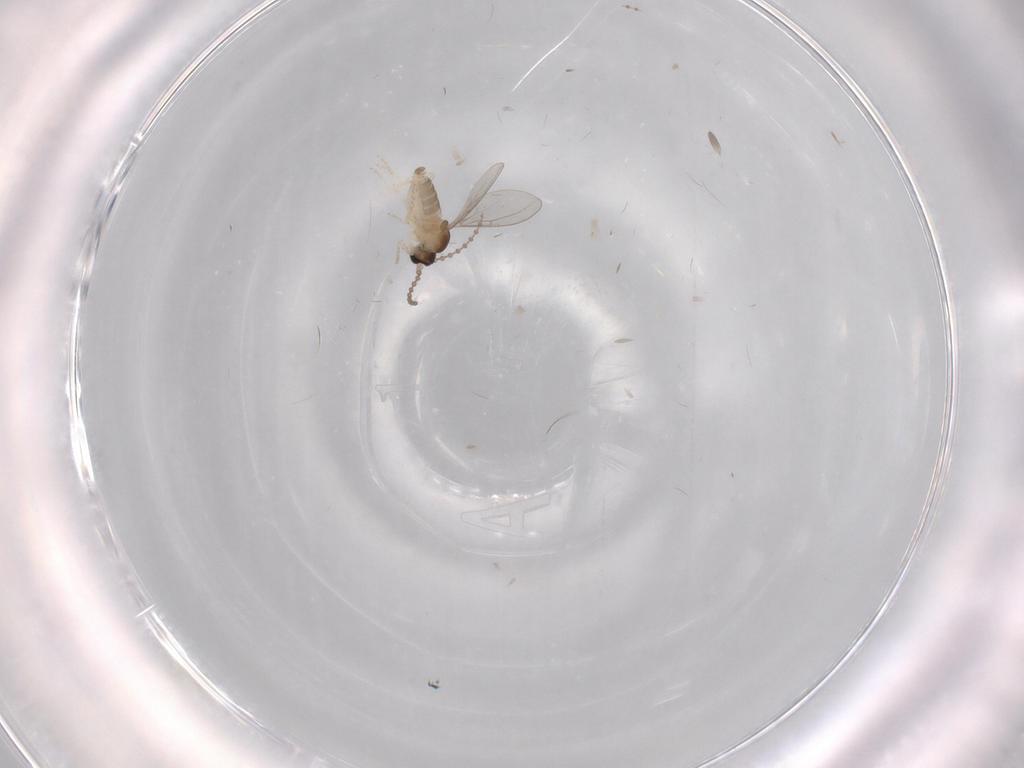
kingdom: Animalia
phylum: Arthropoda
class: Insecta
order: Diptera
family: Cecidomyiidae
